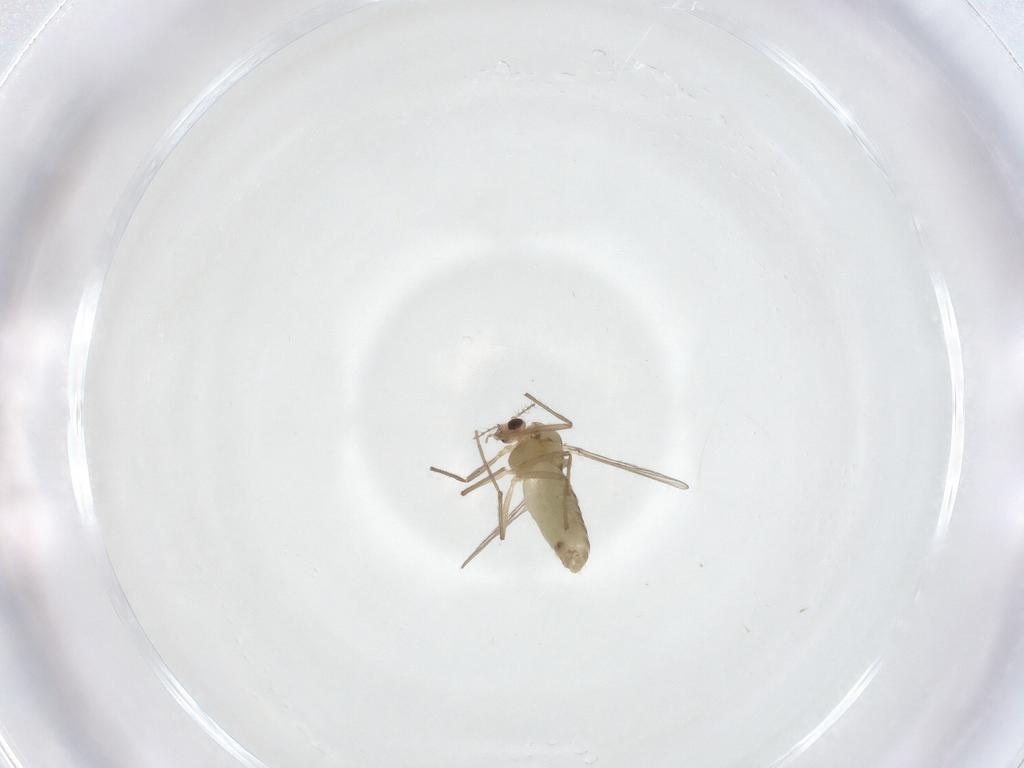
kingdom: Animalia
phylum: Arthropoda
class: Insecta
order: Diptera
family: Chironomidae
